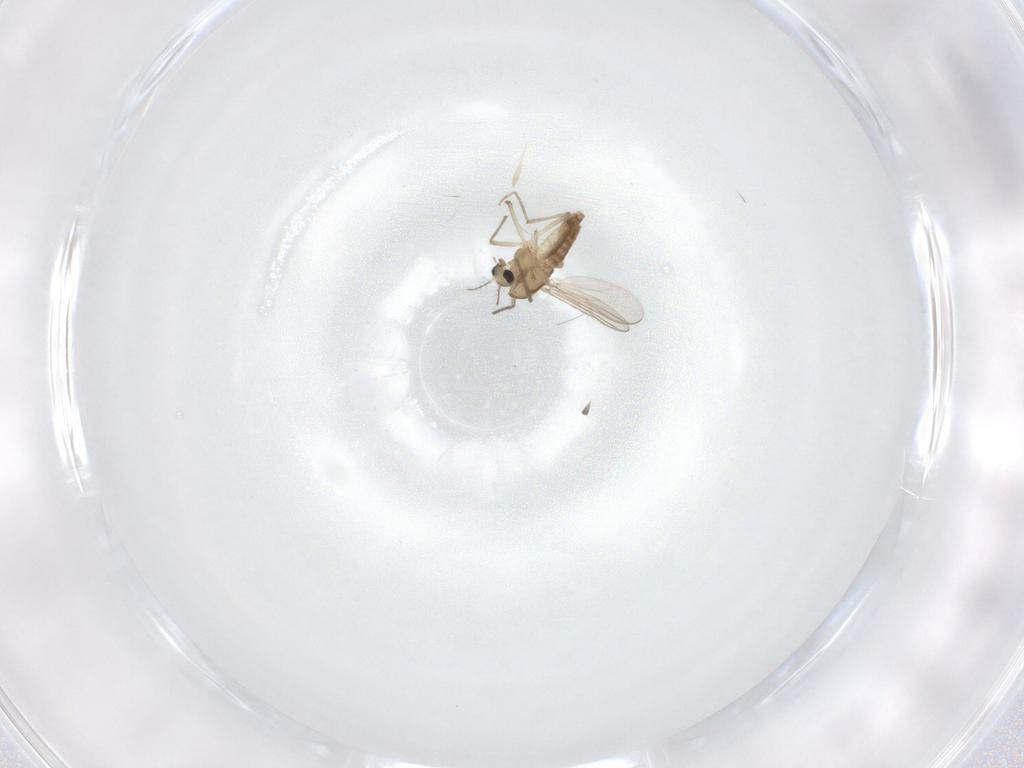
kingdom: Animalia
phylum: Arthropoda
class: Insecta
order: Diptera
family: Chironomidae
